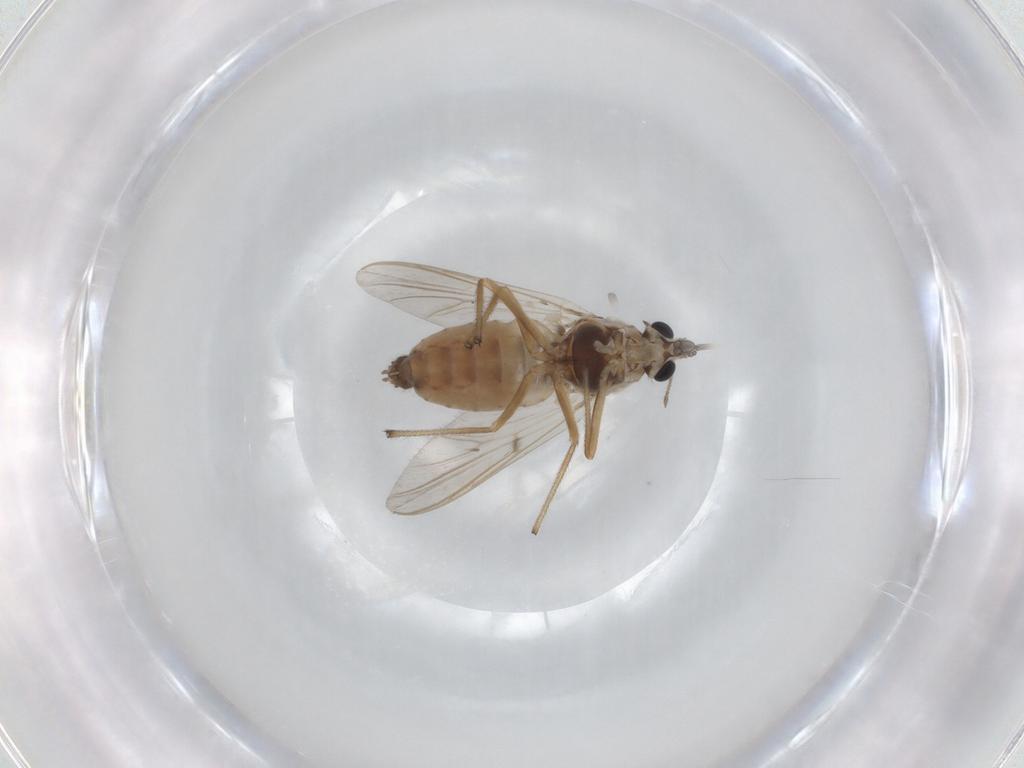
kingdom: Animalia
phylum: Arthropoda
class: Insecta
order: Diptera
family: Chironomidae
